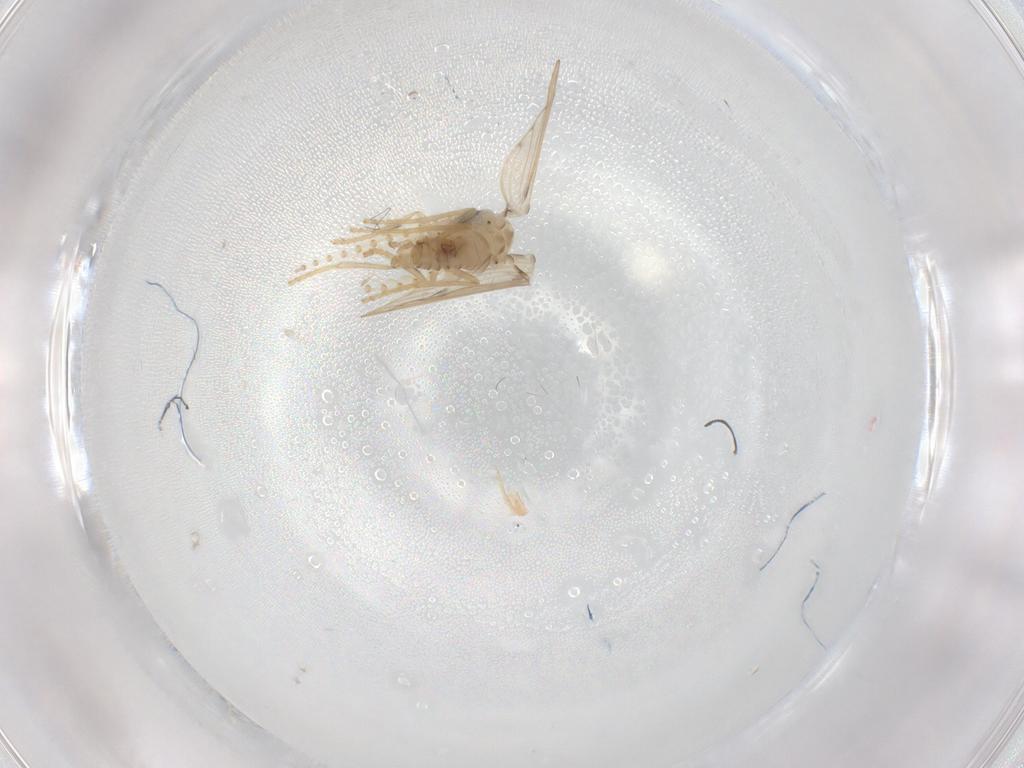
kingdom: Animalia
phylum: Arthropoda
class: Insecta
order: Diptera
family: Psychodidae
